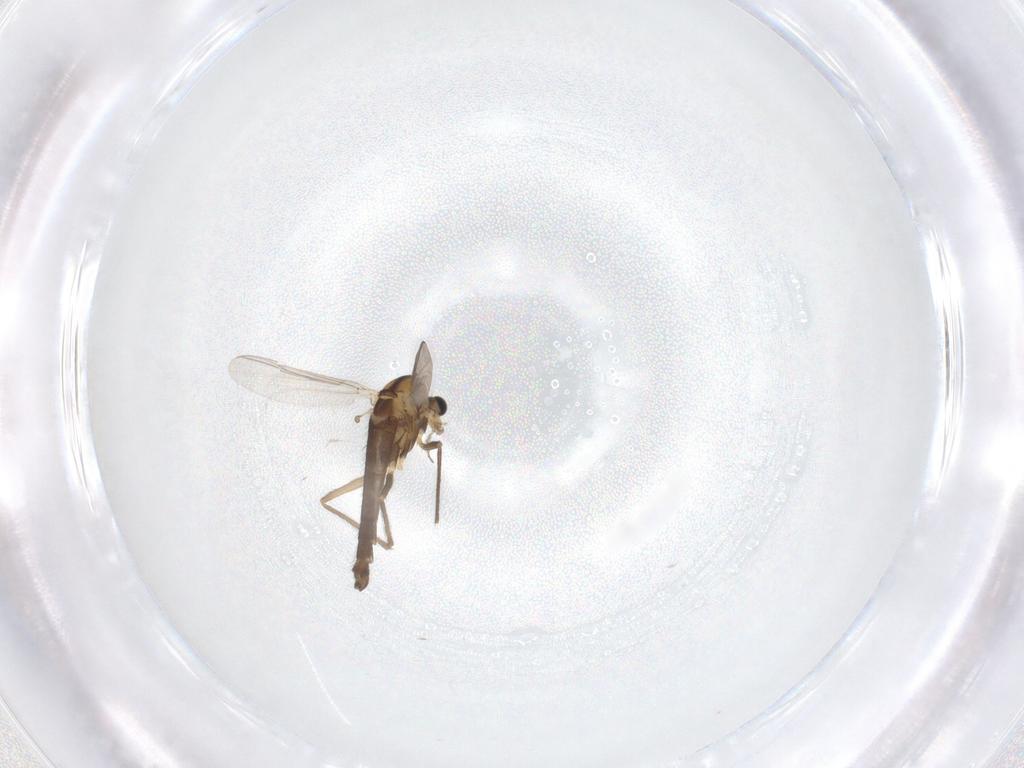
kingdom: Animalia
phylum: Arthropoda
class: Insecta
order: Diptera
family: Chironomidae
